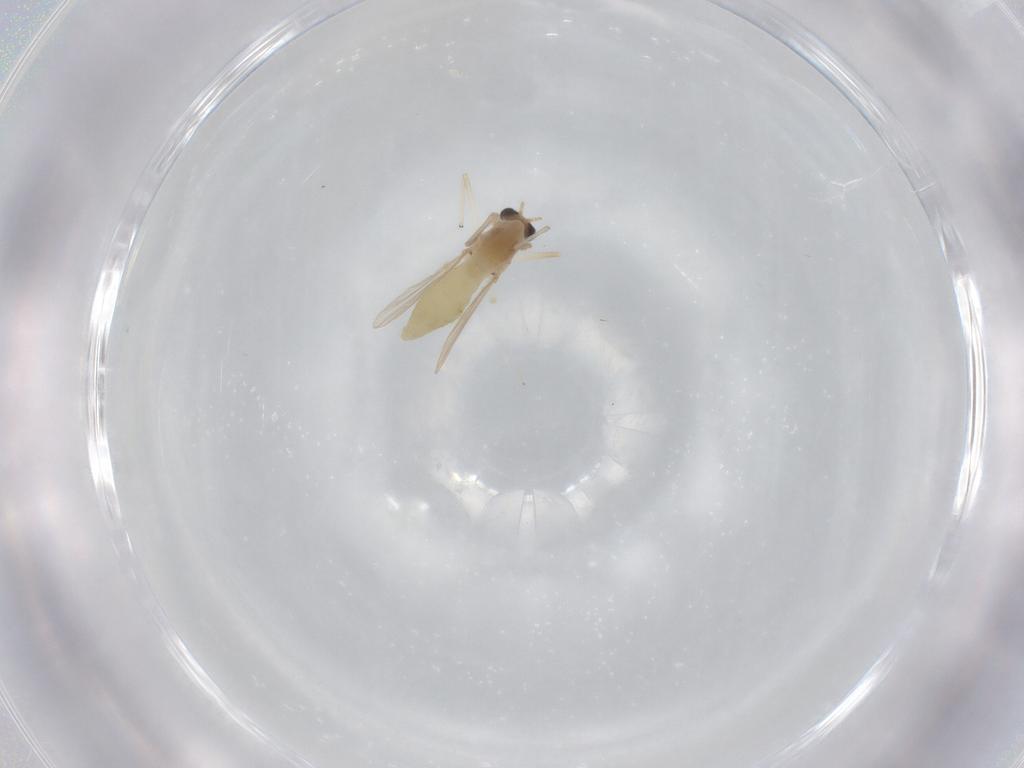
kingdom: Animalia
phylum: Arthropoda
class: Insecta
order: Diptera
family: Chironomidae
